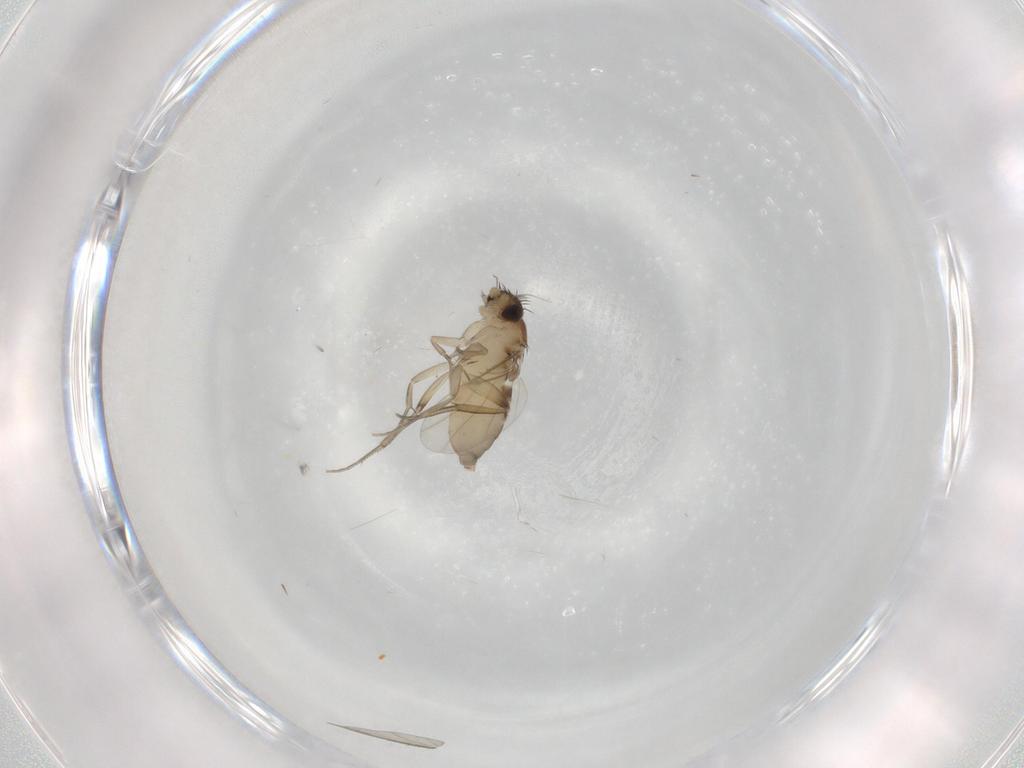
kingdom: Animalia
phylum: Arthropoda
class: Insecta
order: Diptera
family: Phoridae
